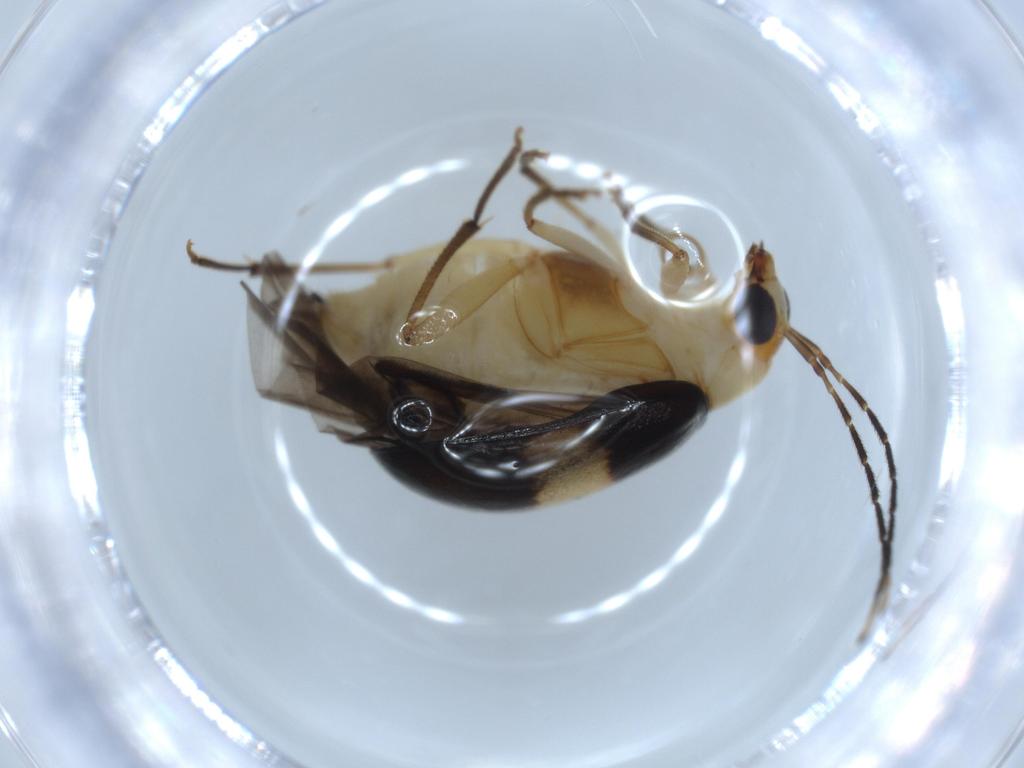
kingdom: Animalia
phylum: Arthropoda
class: Insecta
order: Coleoptera
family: Chrysomelidae
